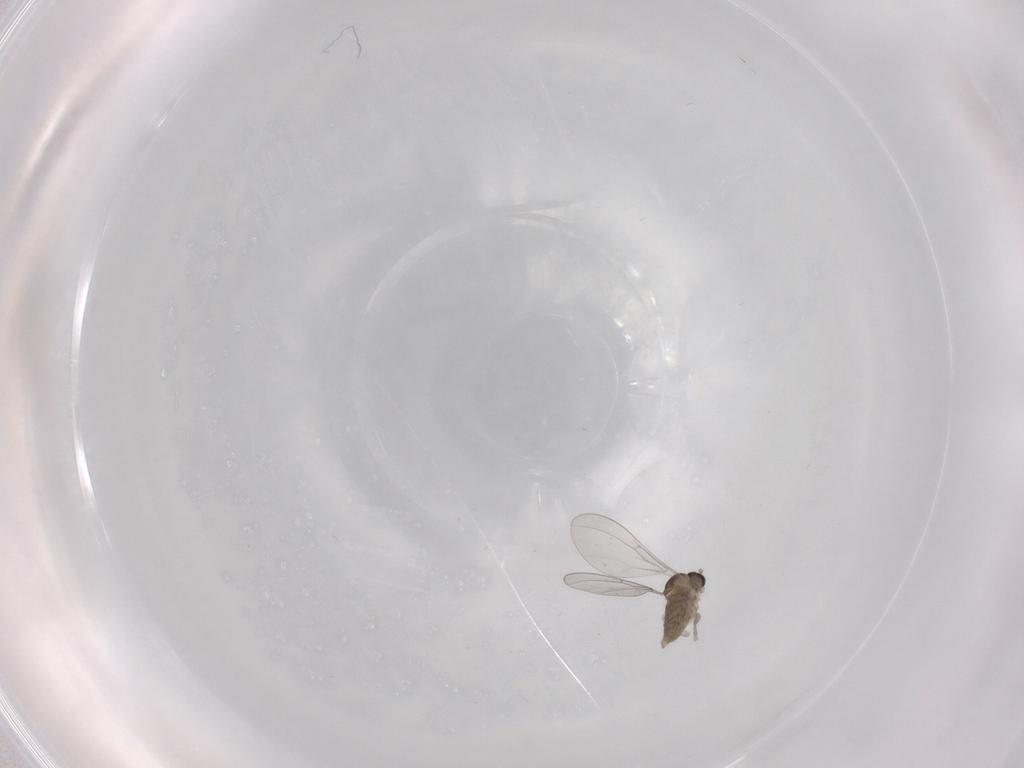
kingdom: Animalia
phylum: Arthropoda
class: Insecta
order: Diptera
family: Cecidomyiidae
